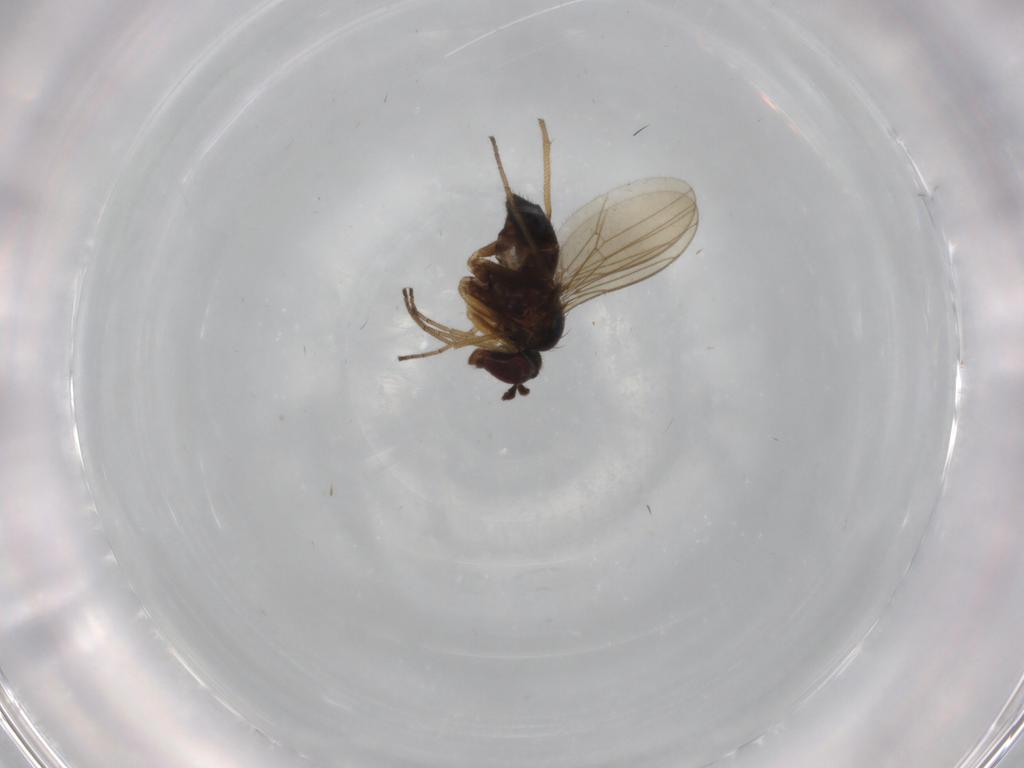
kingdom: Animalia
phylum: Arthropoda
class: Insecta
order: Diptera
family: Dolichopodidae
